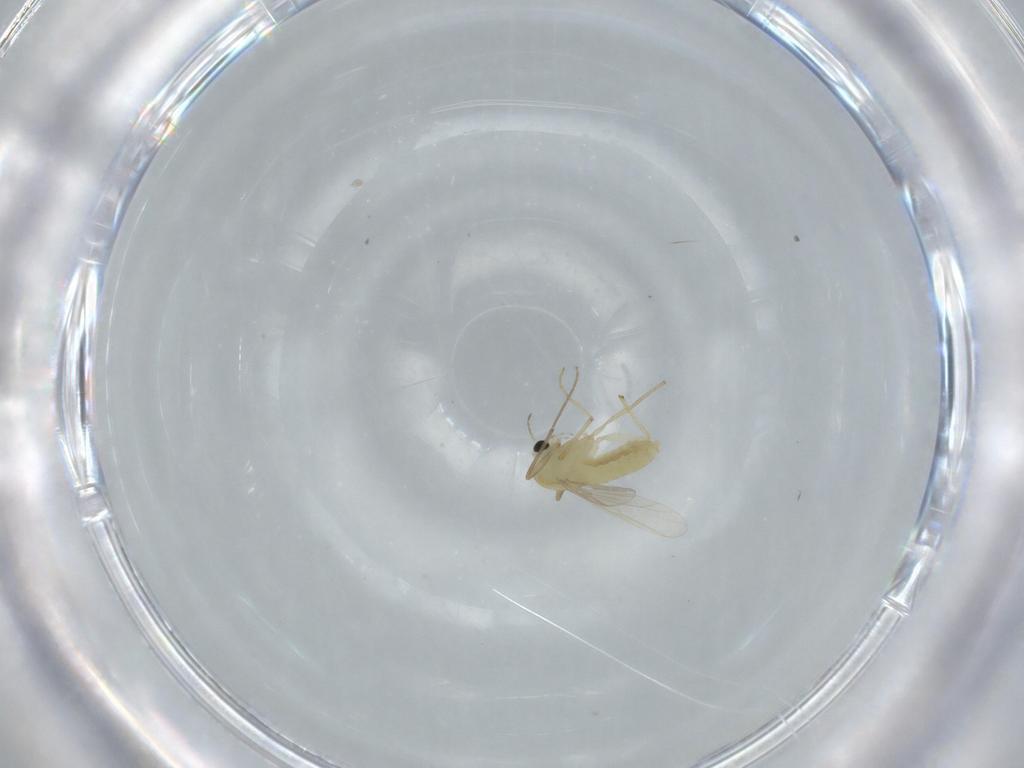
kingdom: Animalia
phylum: Arthropoda
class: Insecta
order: Diptera
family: Chironomidae
